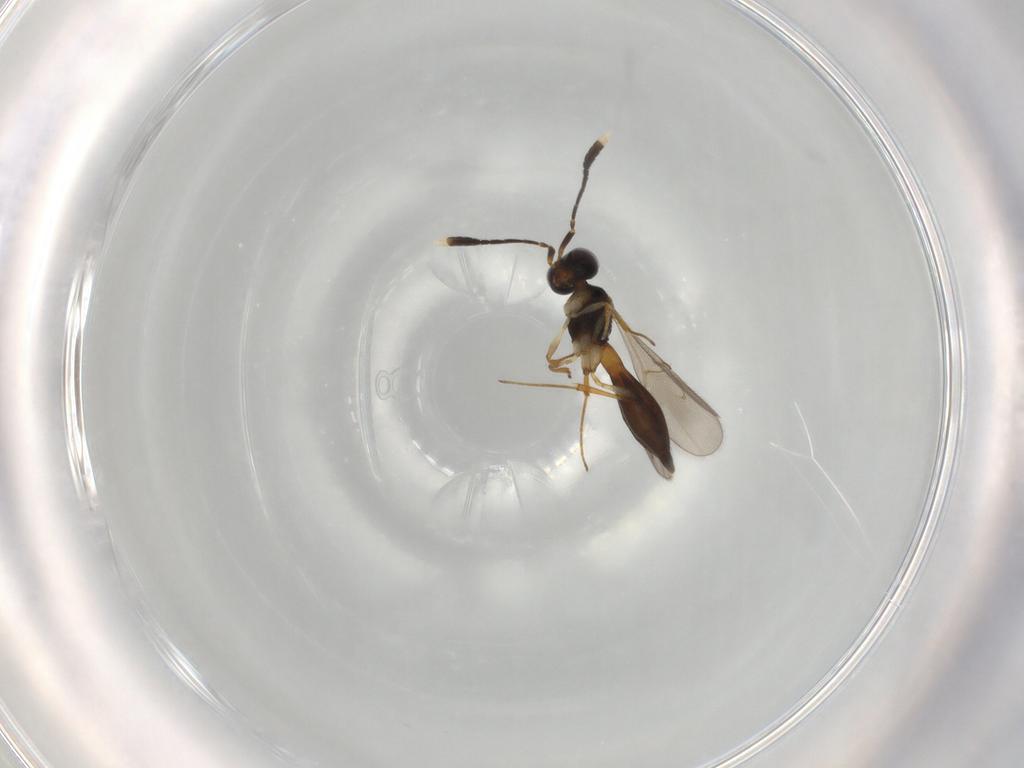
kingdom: Animalia
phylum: Arthropoda
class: Insecta
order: Hymenoptera
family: Scelionidae
